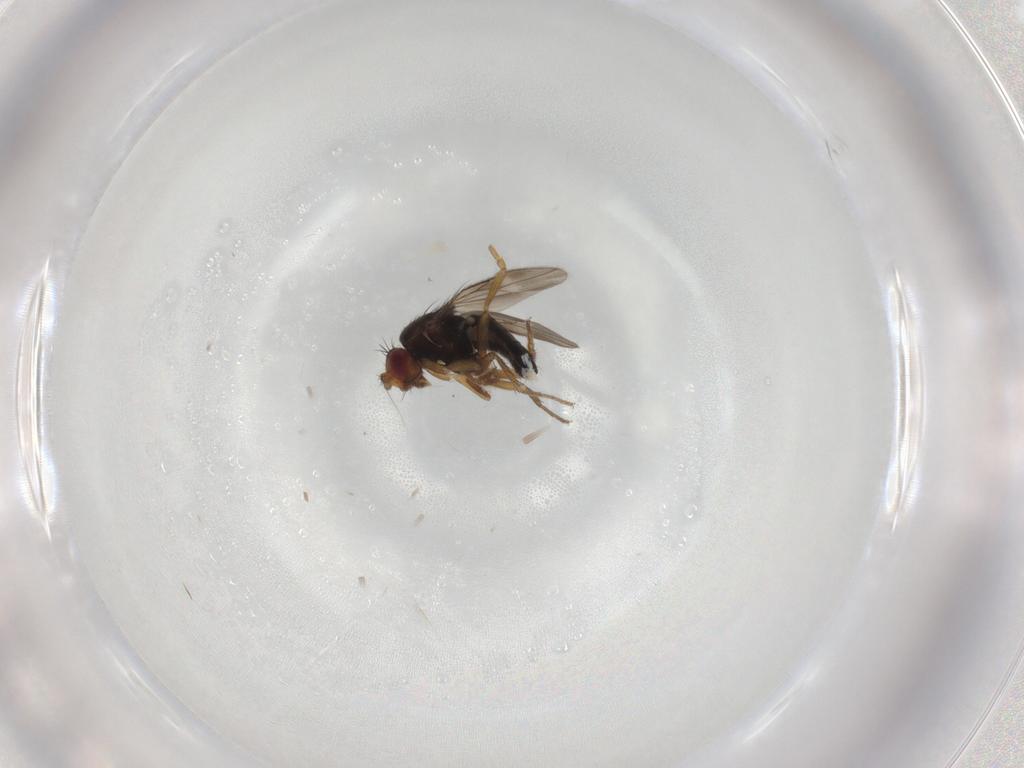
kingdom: Animalia
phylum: Arthropoda
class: Insecta
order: Diptera
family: Sphaeroceridae
